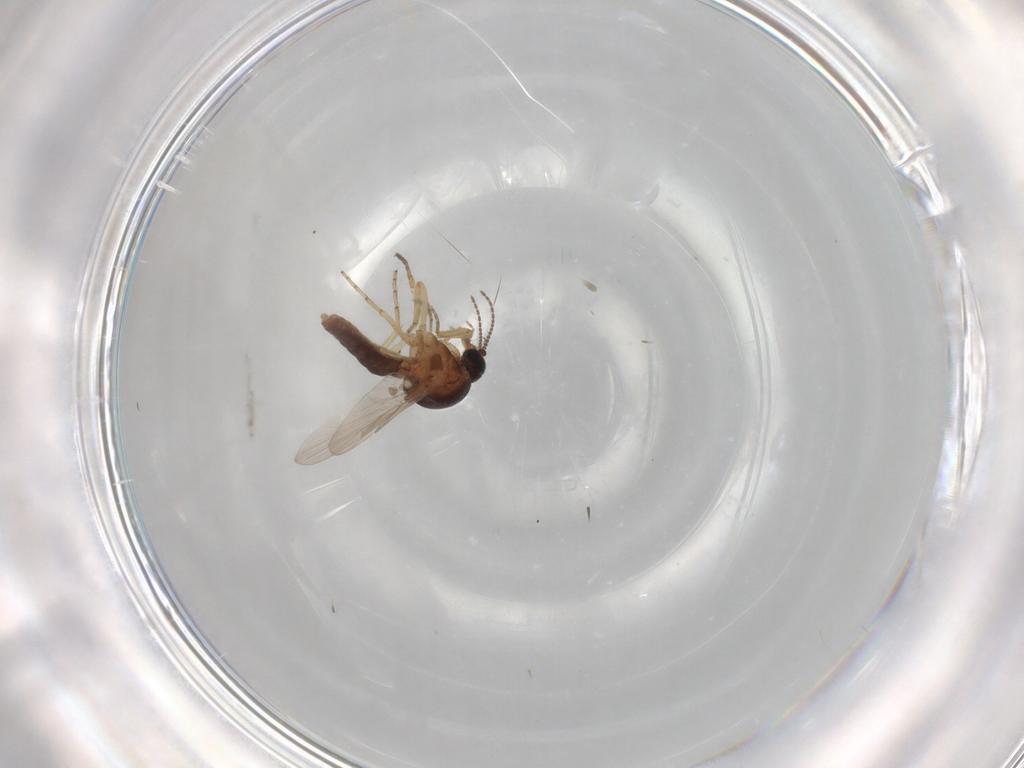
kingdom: Animalia
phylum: Arthropoda
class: Insecta
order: Diptera
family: Ceratopogonidae
